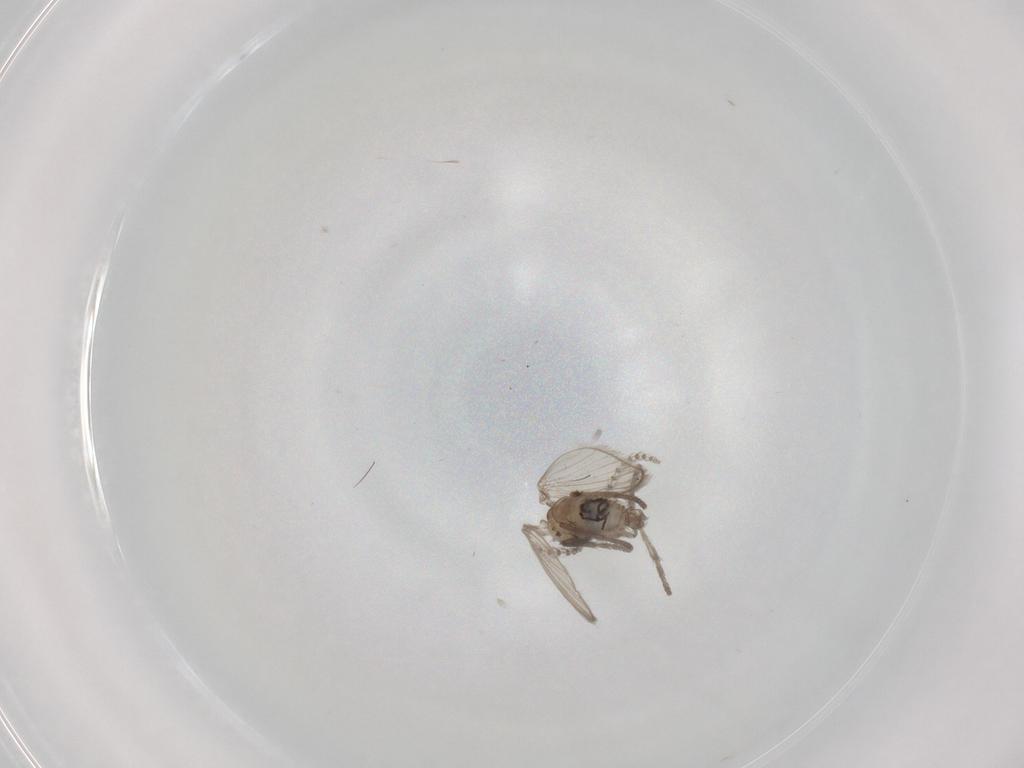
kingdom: Animalia
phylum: Arthropoda
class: Insecta
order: Diptera
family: Psychodidae
